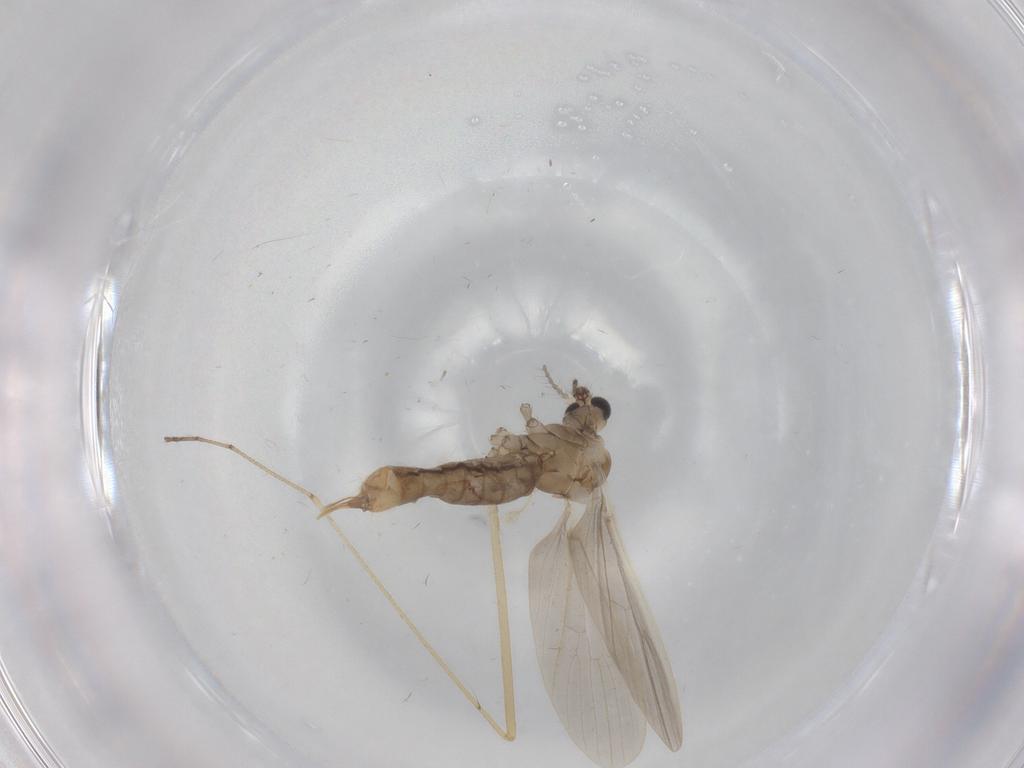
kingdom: Animalia
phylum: Arthropoda
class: Insecta
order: Diptera
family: Limoniidae
